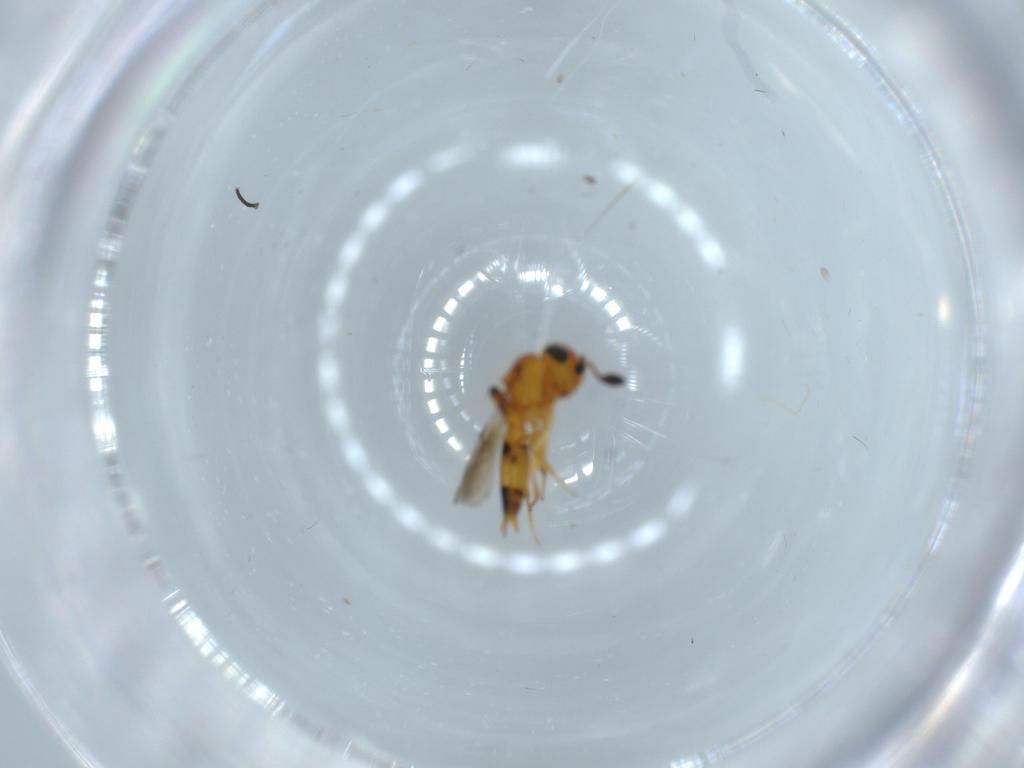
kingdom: Animalia
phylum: Arthropoda
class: Insecta
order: Hymenoptera
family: Scelionidae
